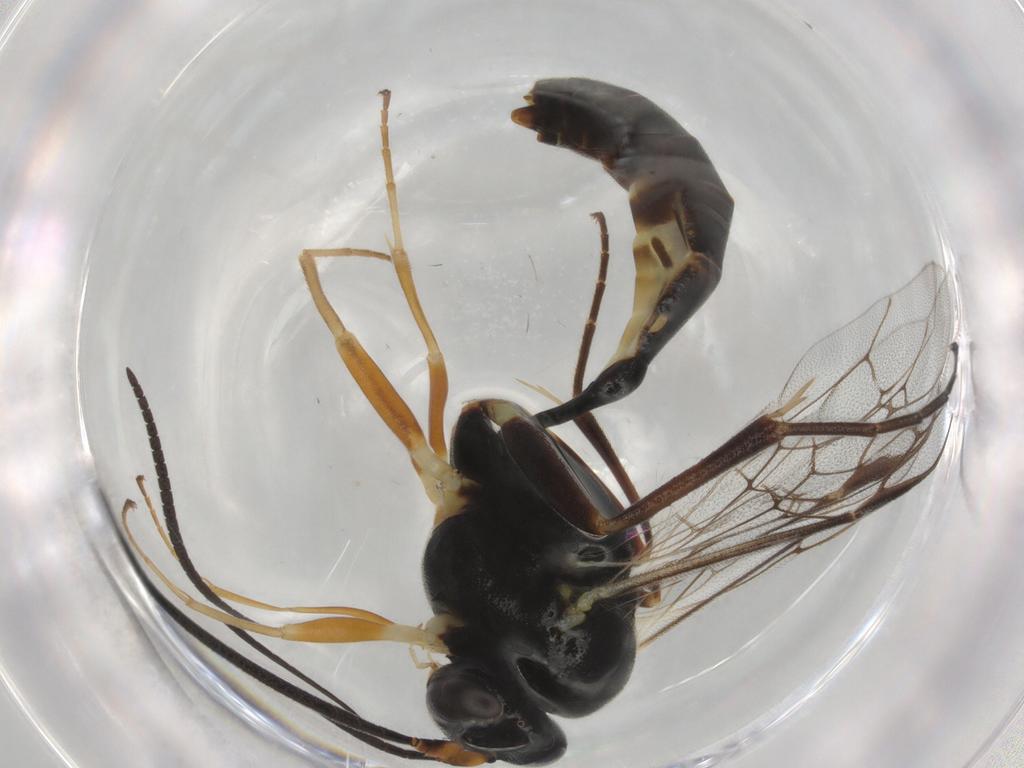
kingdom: Animalia
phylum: Arthropoda
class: Insecta
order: Hymenoptera
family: Ichneumonidae
